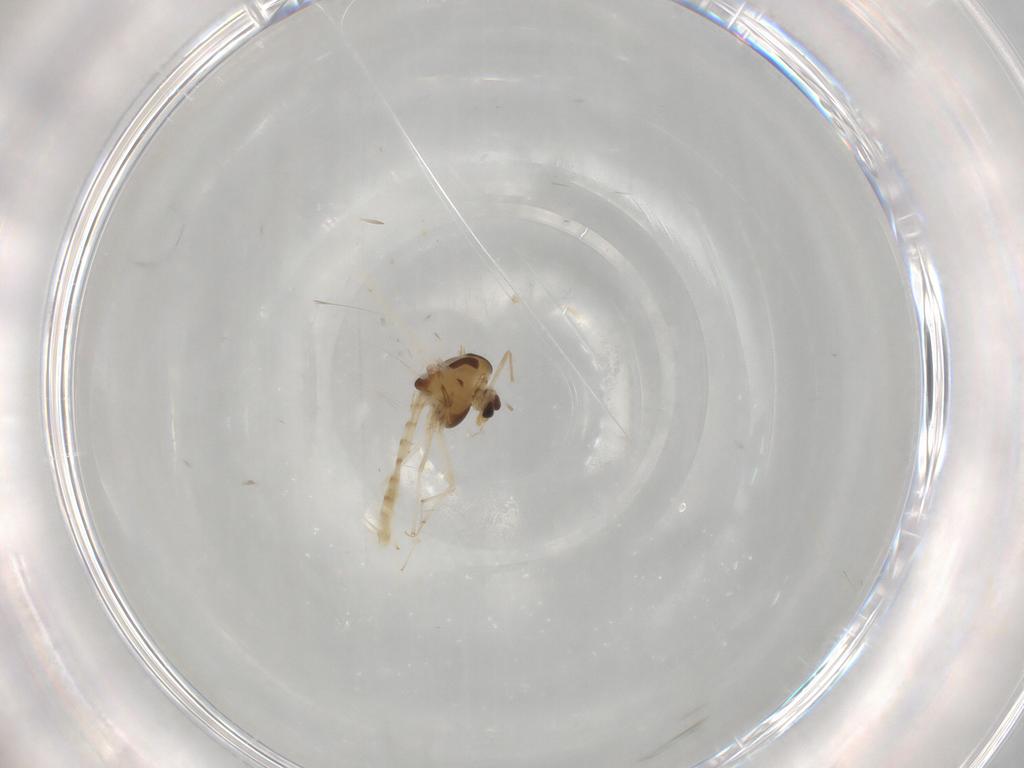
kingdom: Animalia
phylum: Arthropoda
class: Insecta
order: Diptera
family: Chironomidae
